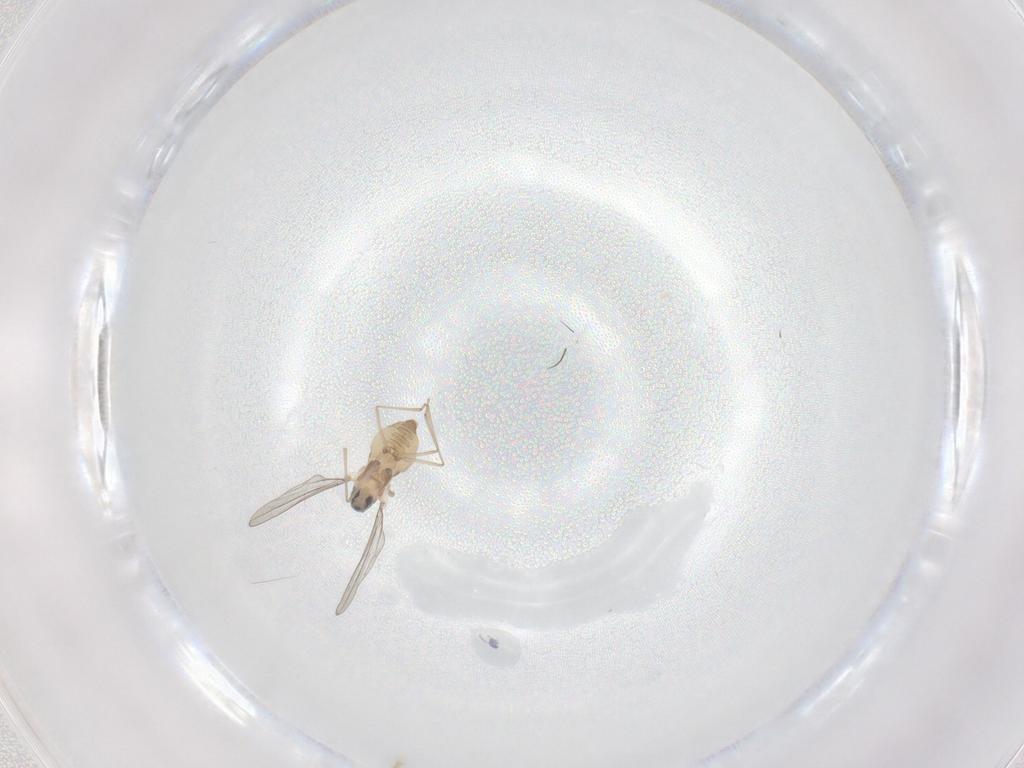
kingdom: Animalia
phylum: Arthropoda
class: Insecta
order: Diptera
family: Cecidomyiidae
